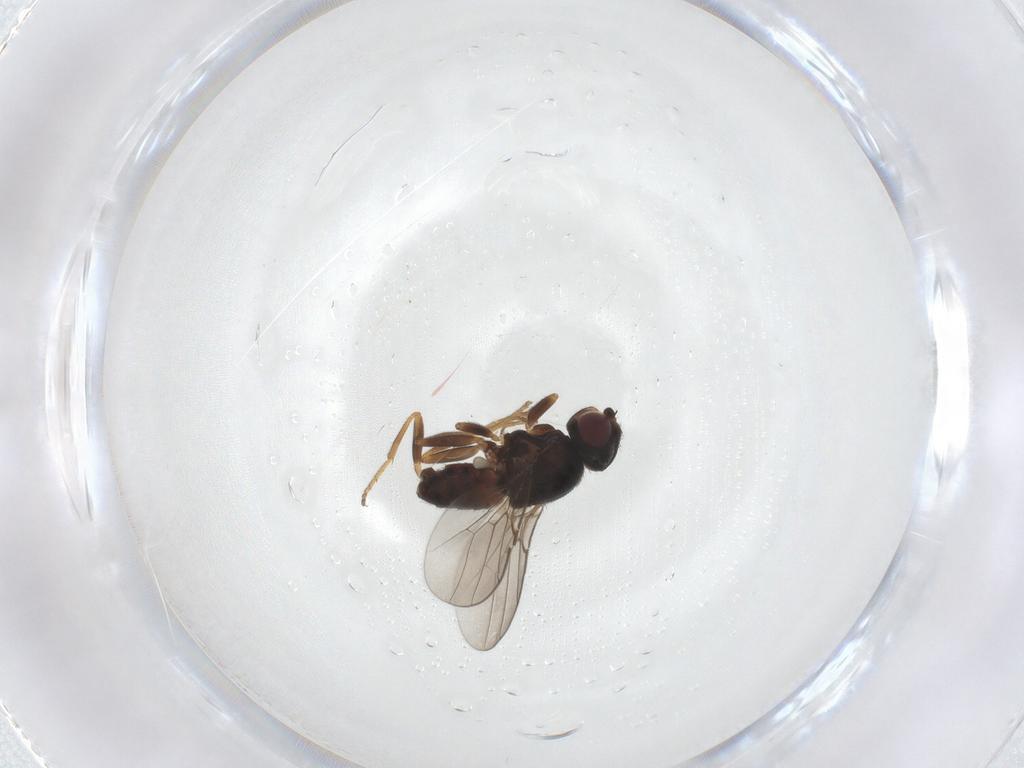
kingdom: Animalia
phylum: Arthropoda
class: Insecta
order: Diptera
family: Chloropidae
